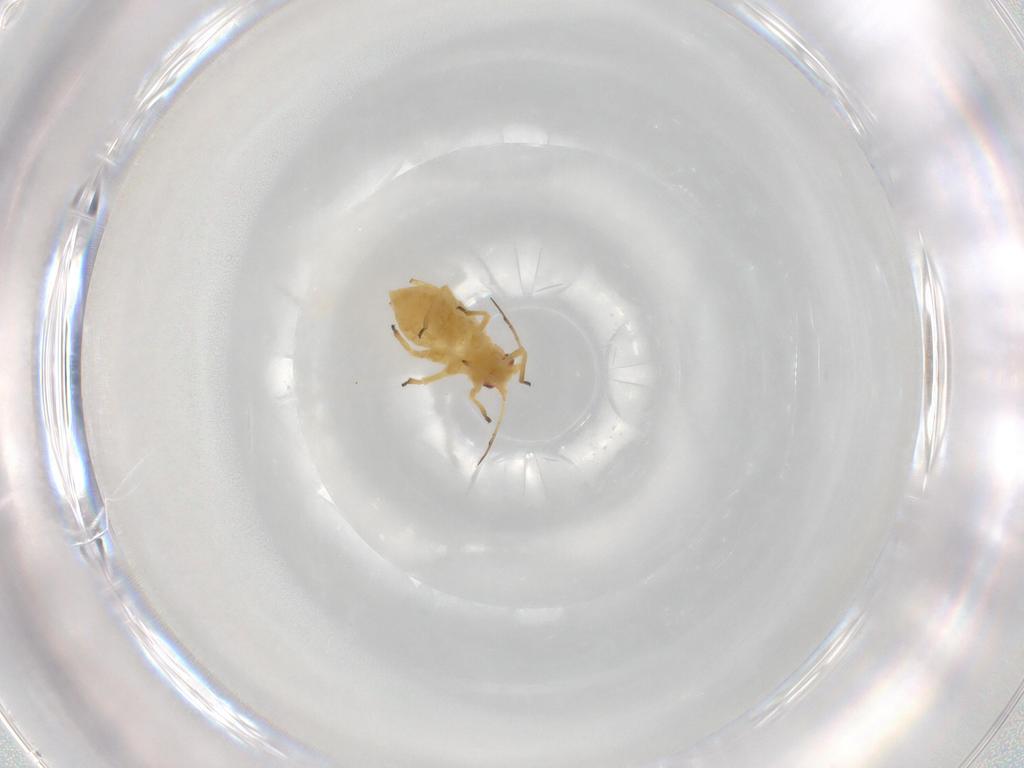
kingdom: Animalia
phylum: Arthropoda
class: Insecta
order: Hemiptera
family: Aphididae
